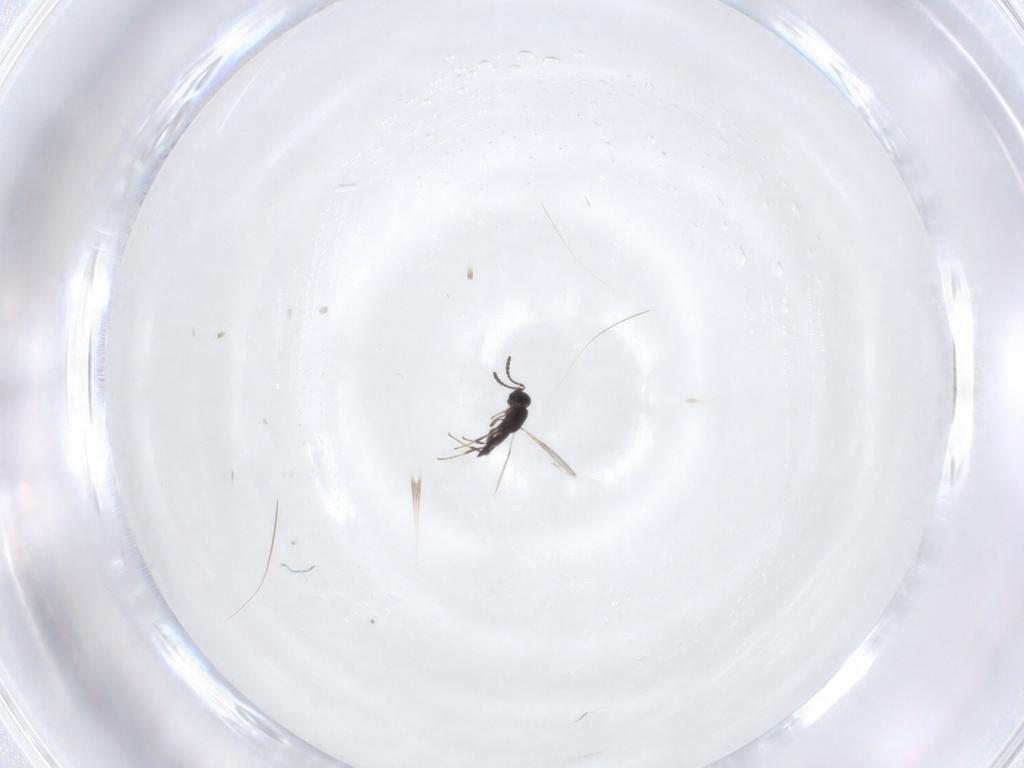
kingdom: Animalia
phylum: Arthropoda
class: Insecta
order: Hymenoptera
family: Scelionidae
